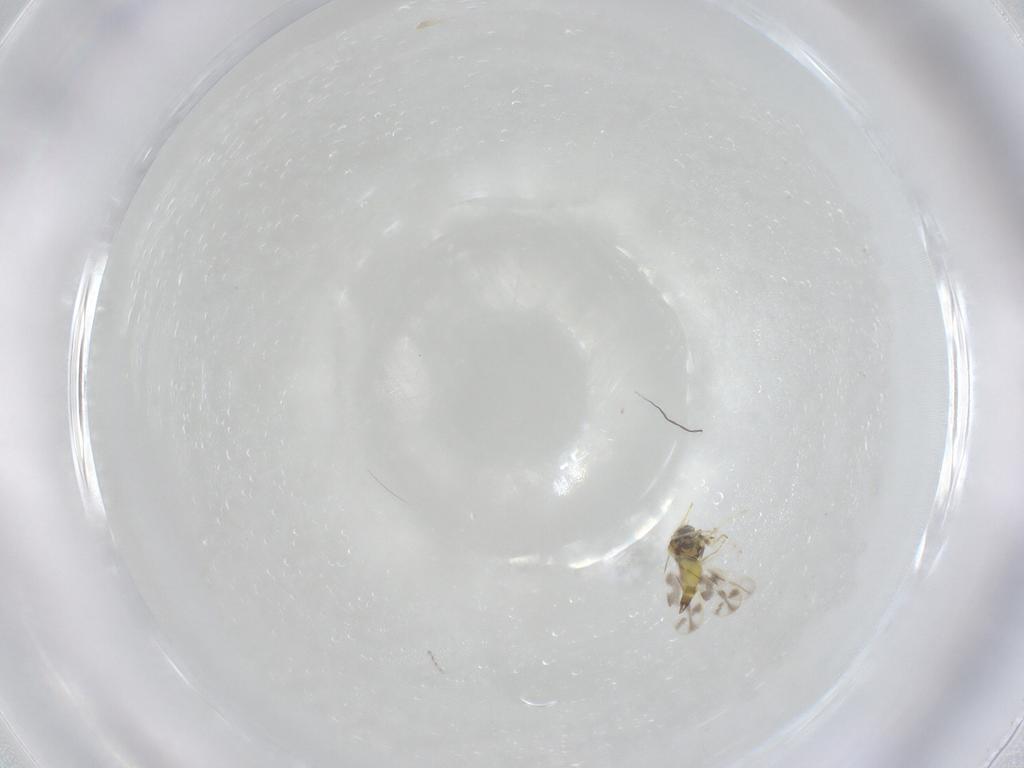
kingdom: Animalia
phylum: Arthropoda
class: Insecta
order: Diptera
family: Cecidomyiidae
